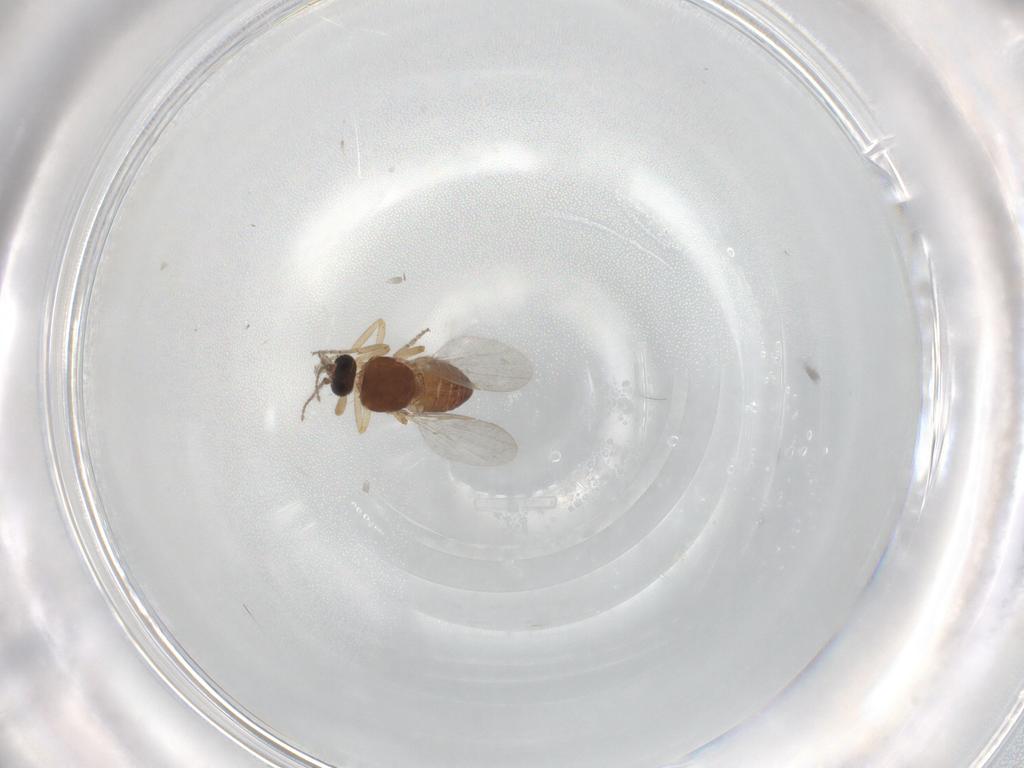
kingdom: Animalia
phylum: Arthropoda
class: Insecta
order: Diptera
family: Ceratopogonidae
